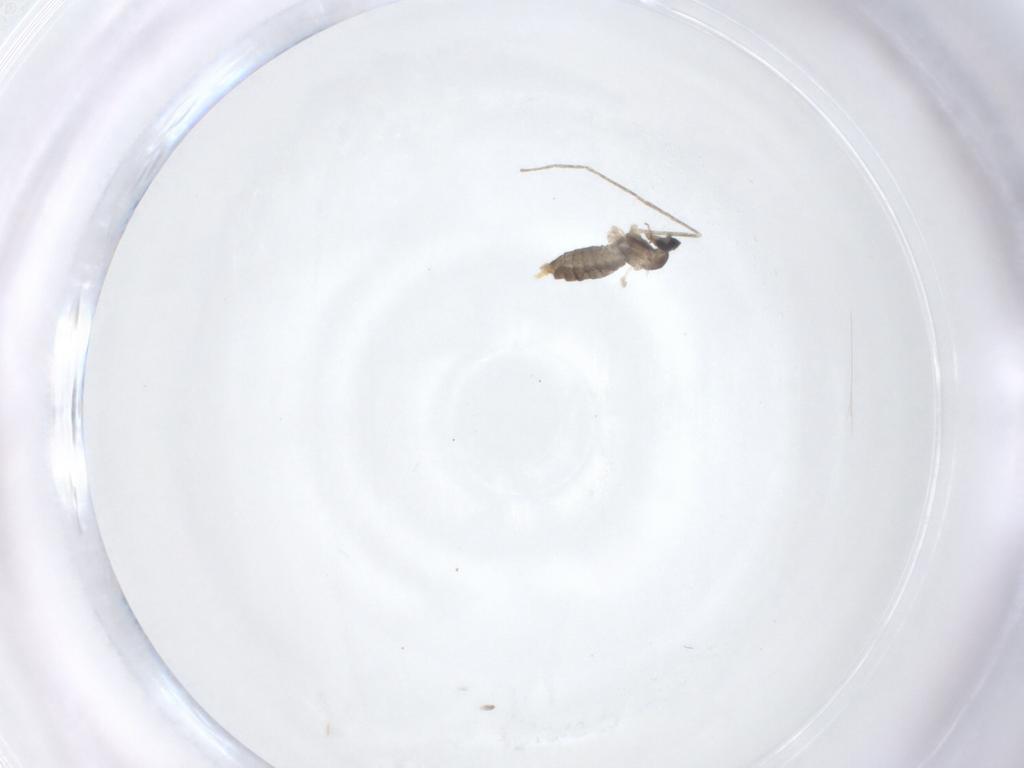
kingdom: Animalia
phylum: Arthropoda
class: Insecta
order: Diptera
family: Cecidomyiidae
